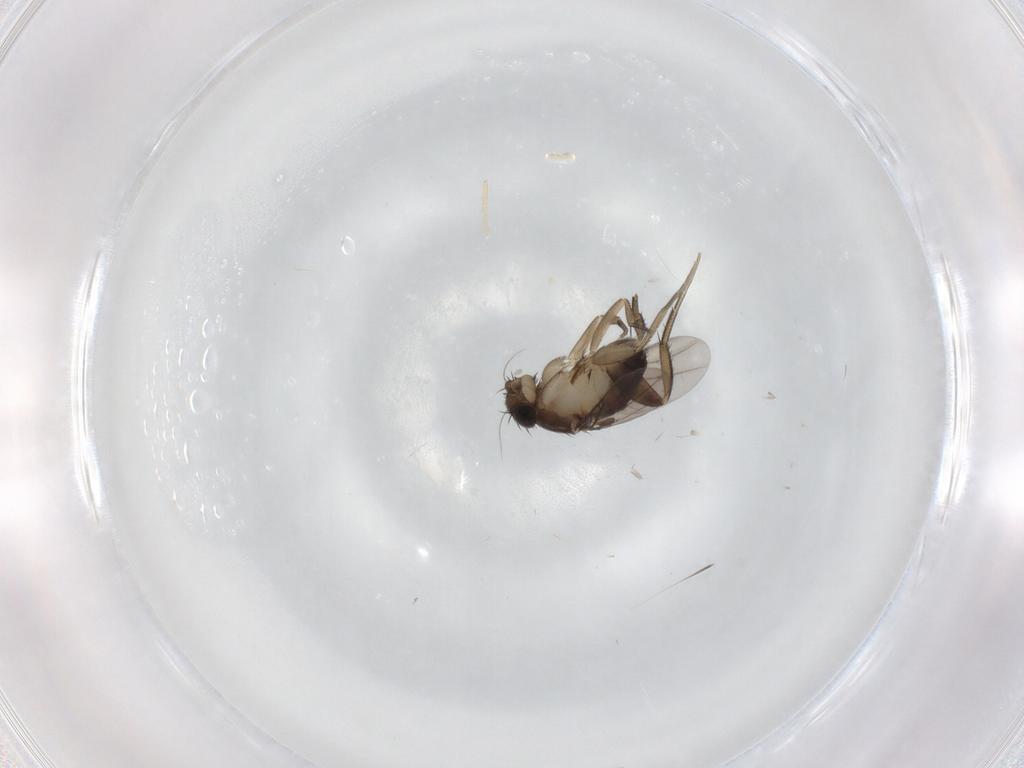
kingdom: Animalia
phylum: Arthropoda
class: Insecta
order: Diptera
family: Phoridae
